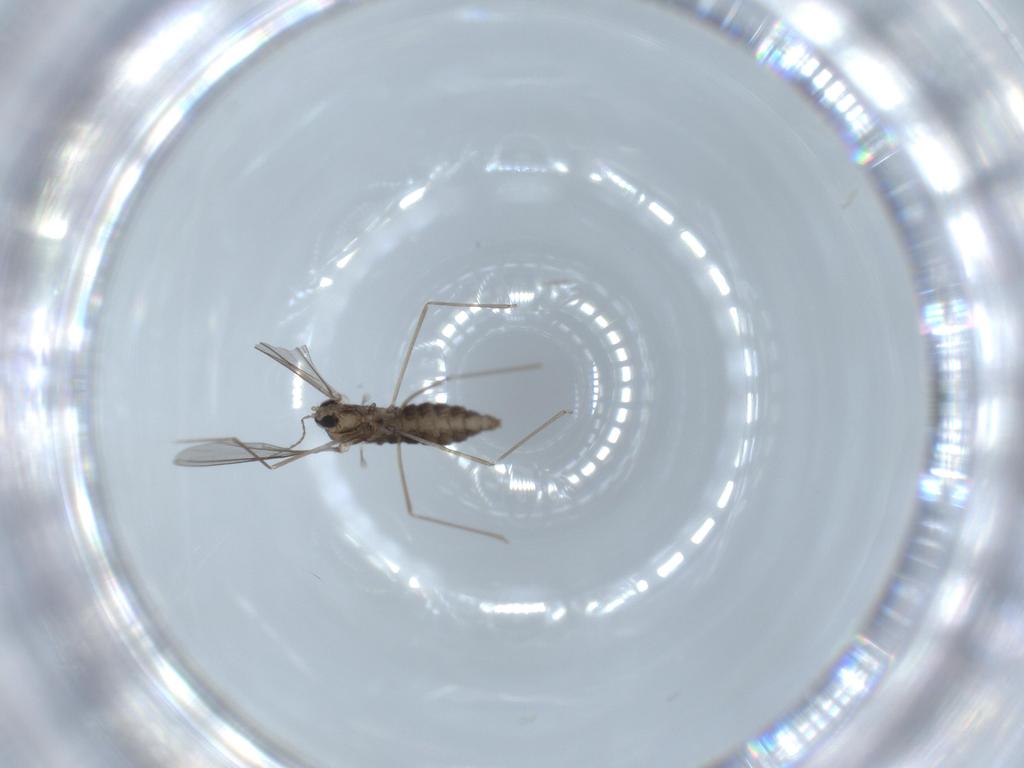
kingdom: Animalia
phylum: Arthropoda
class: Insecta
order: Diptera
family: Cecidomyiidae
